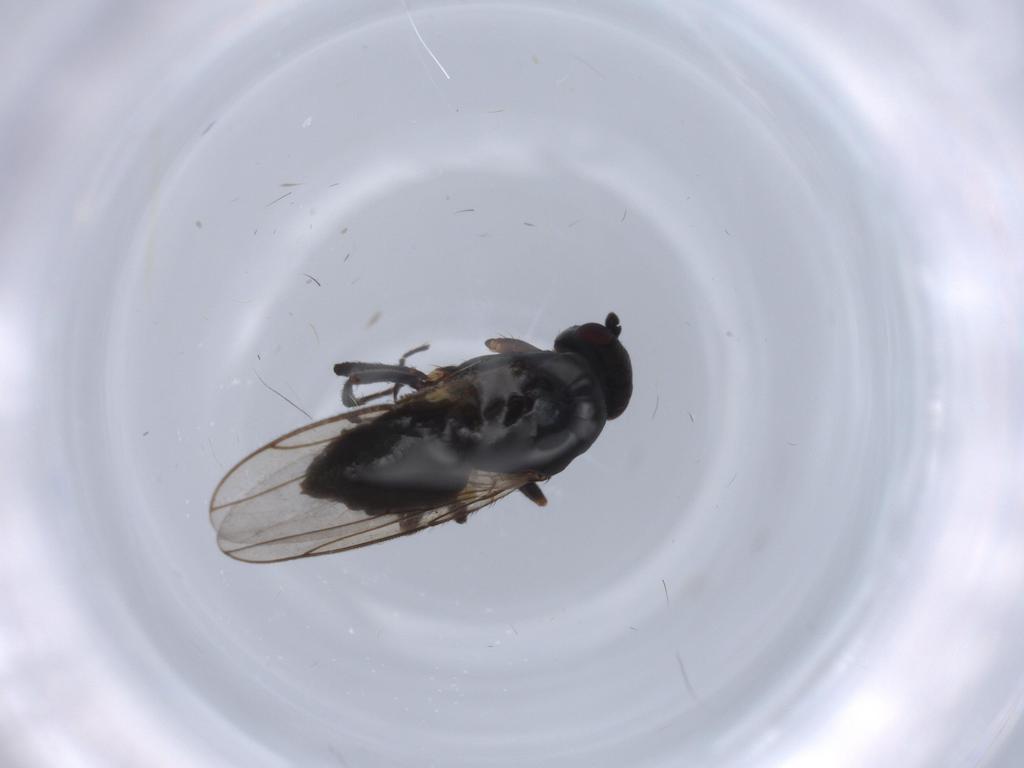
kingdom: Animalia
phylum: Arthropoda
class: Insecta
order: Diptera
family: Sphaeroceridae
